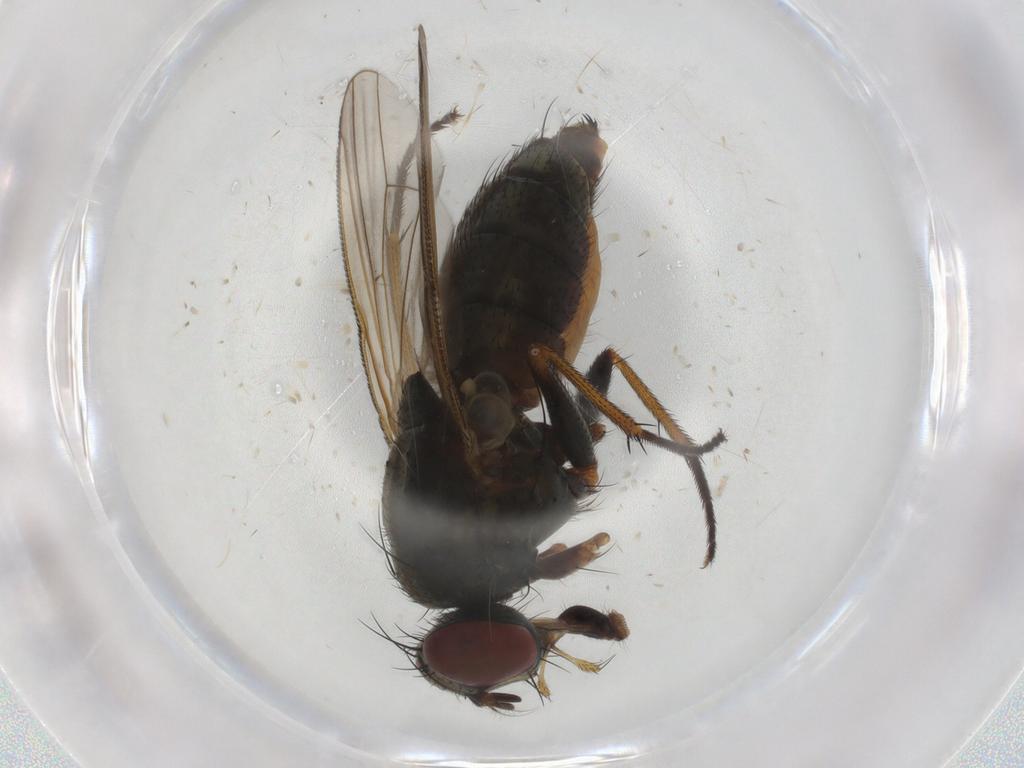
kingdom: Animalia
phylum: Arthropoda
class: Insecta
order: Diptera
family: Muscidae
